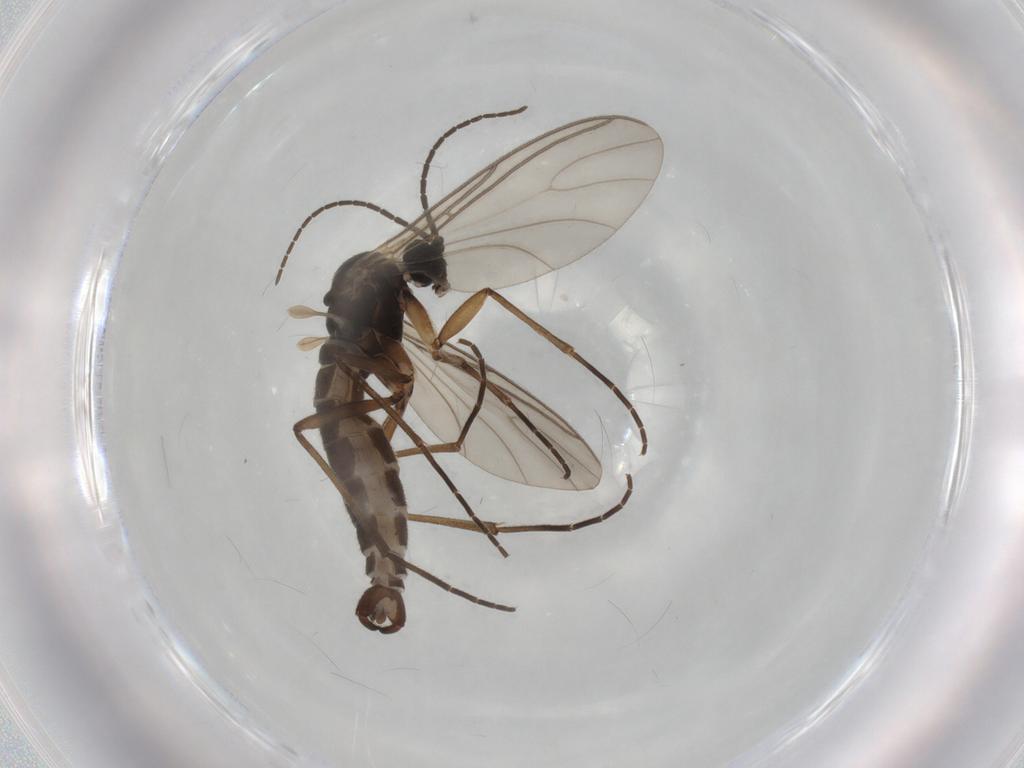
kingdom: Animalia
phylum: Arthropoda
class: Insecta
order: Diptera
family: Sciaridae
